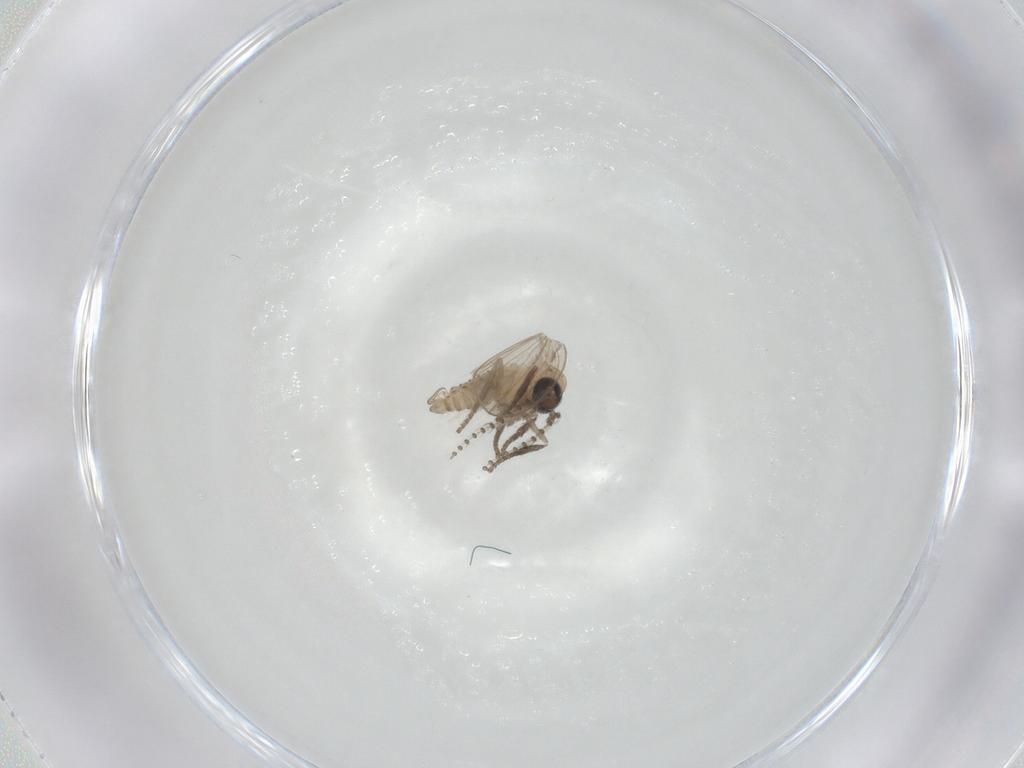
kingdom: Animalia
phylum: Arthropoda
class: Insecta
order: Diptera
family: Psychodidae
